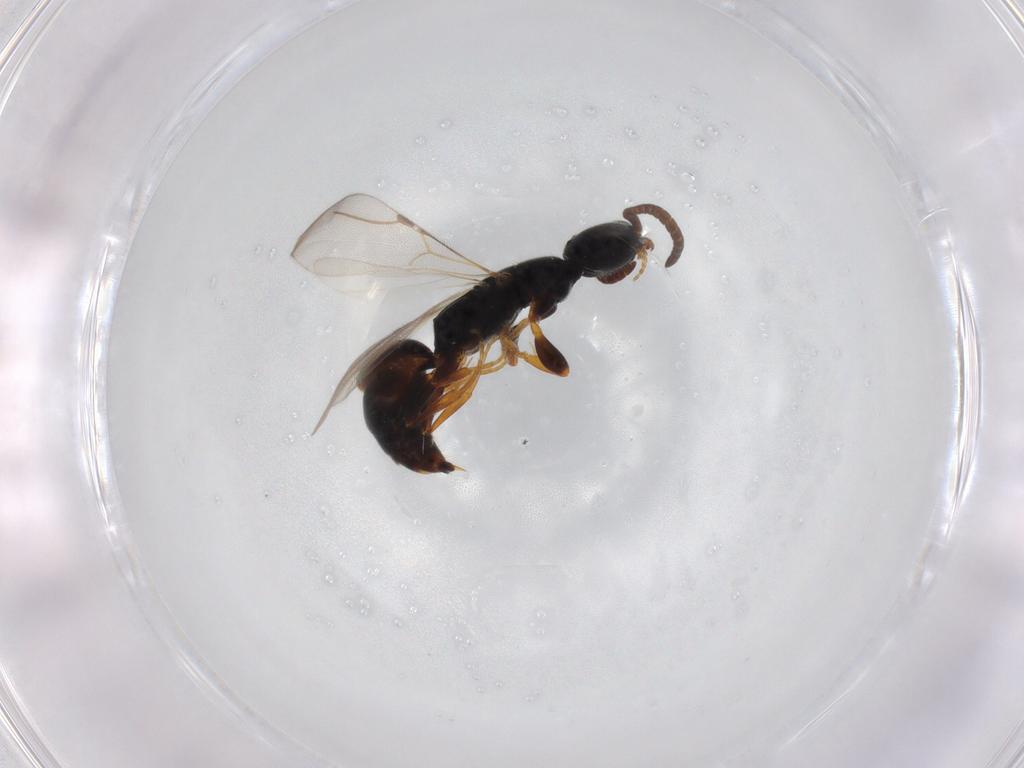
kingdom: Animalia
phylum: Arthropoda
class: Insecta
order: Hymenoptera
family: Bethylidae
